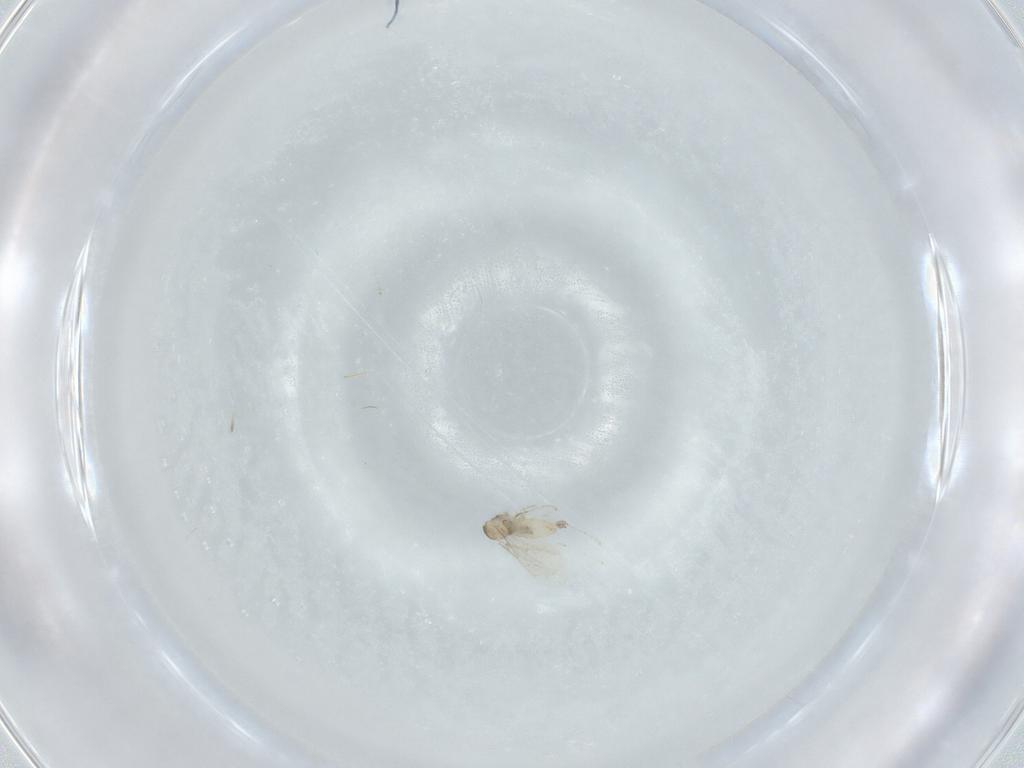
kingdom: Animalia
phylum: Arthropoda
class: Insecta
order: Diptera
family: Cecidomyiidae
